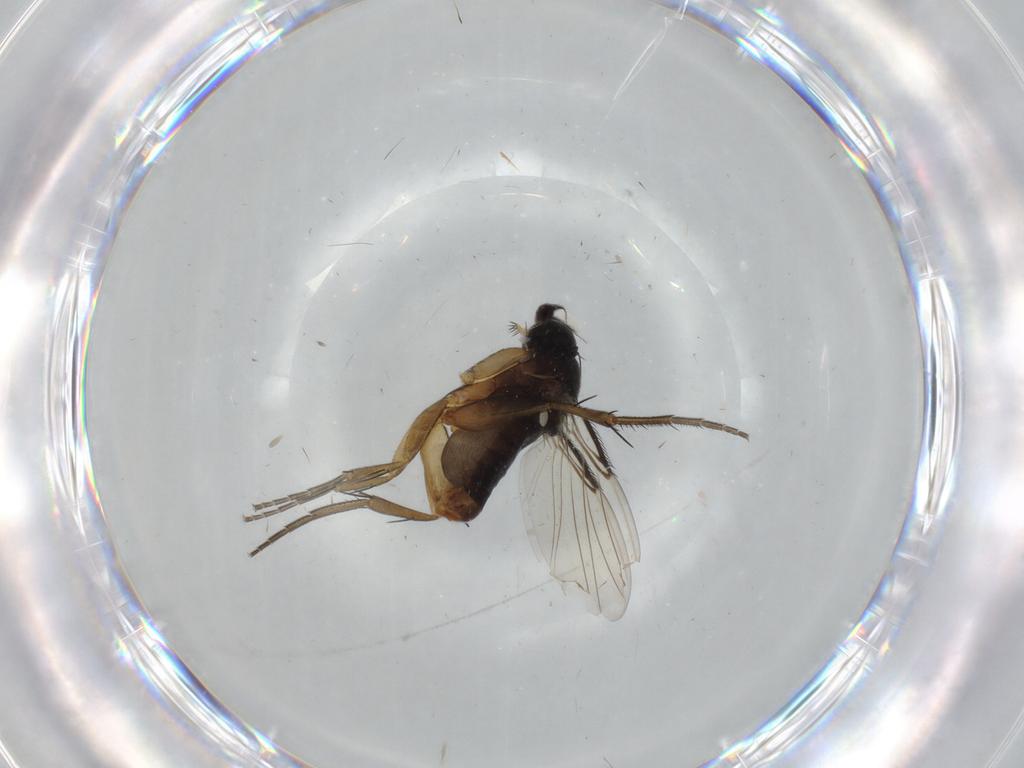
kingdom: Animalia
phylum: Arthropoda
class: Insecta
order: Diptera
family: Phoridae
